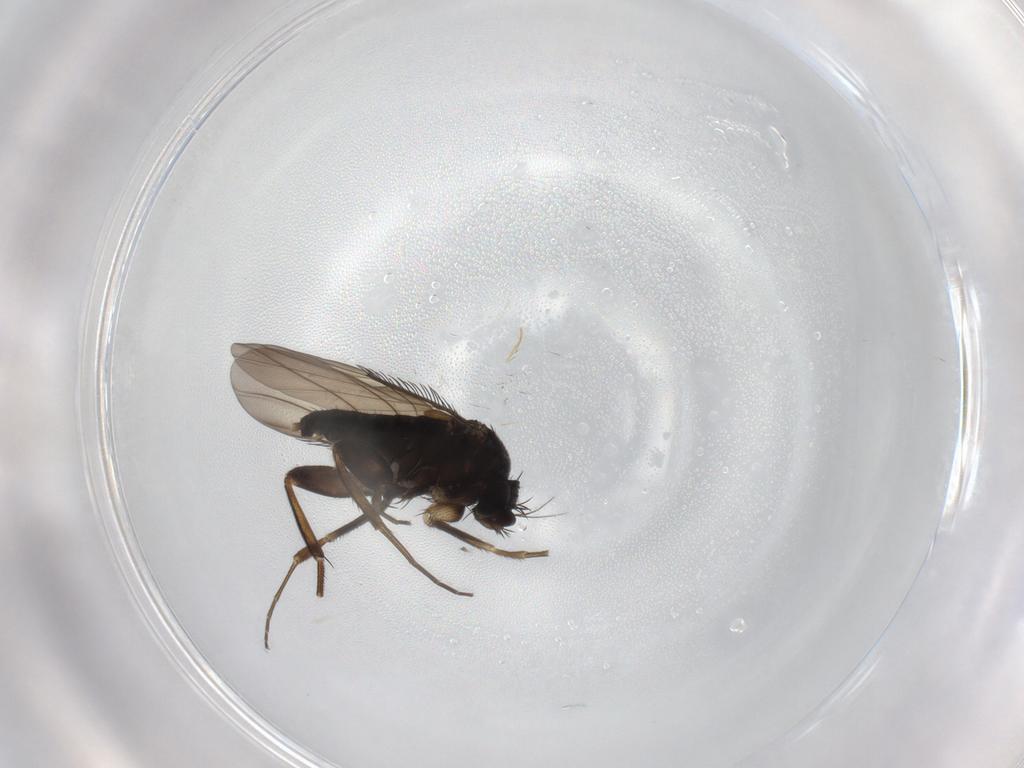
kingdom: Animalia
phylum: Arthropoda
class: Insecta
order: Diptera
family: Phoridae
